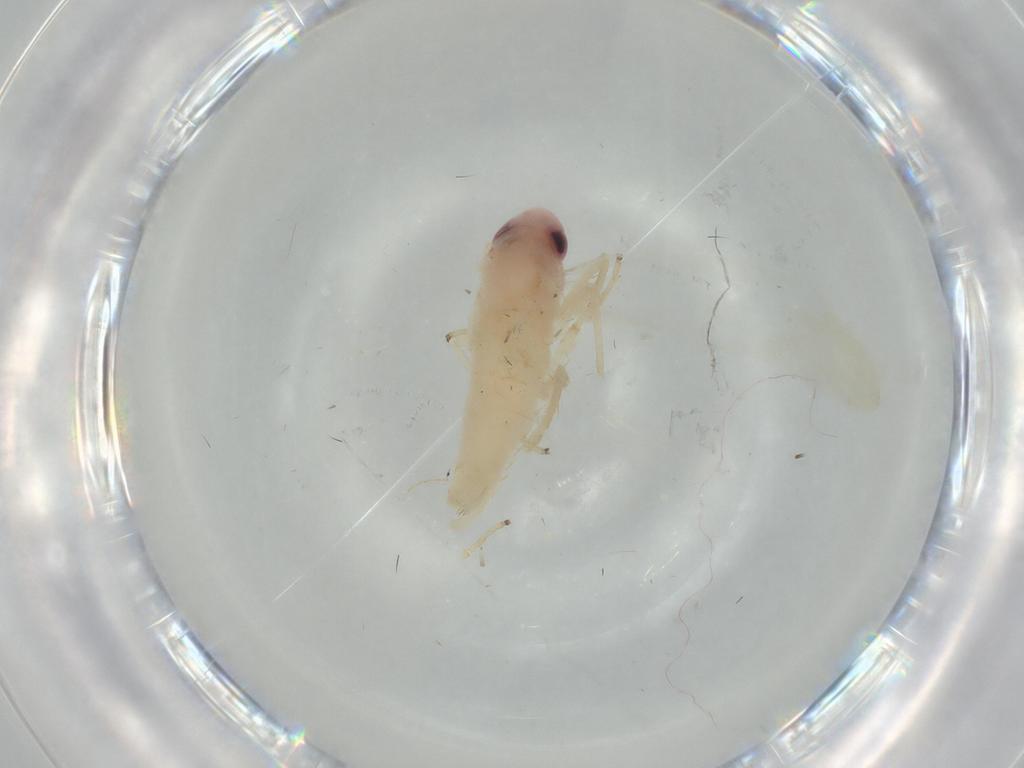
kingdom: Animalia
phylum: Arthropoda
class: Insecta
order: Hemiptera
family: Cicadellidae
